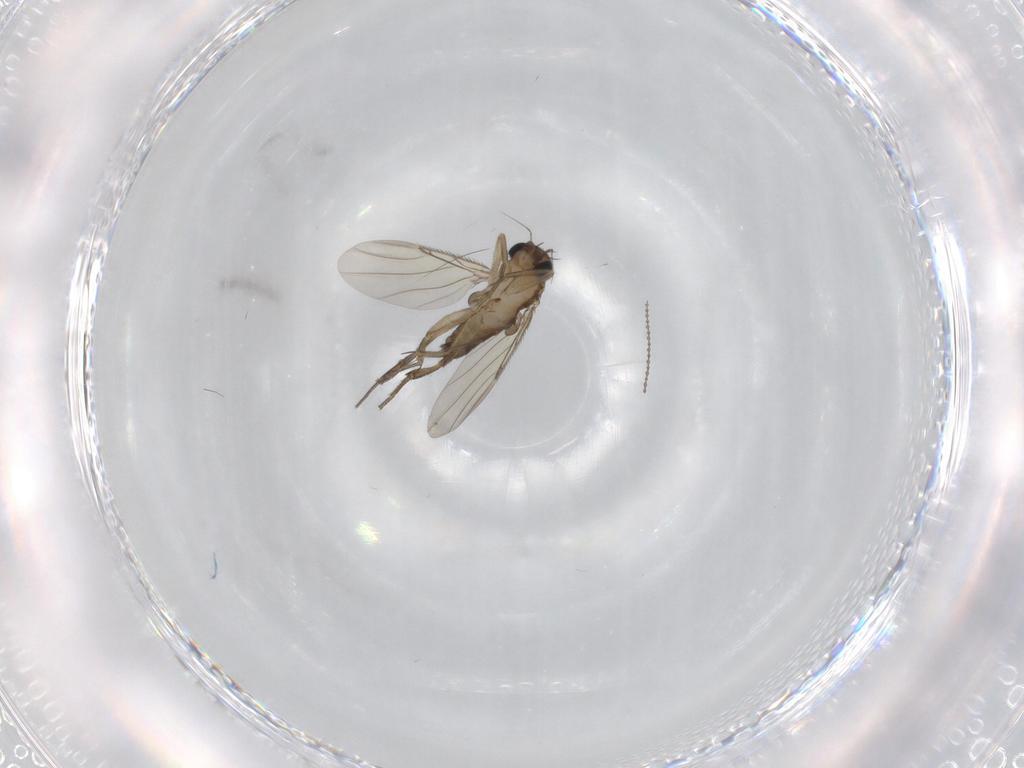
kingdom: Animalia
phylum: Arthropoda
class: Insecta
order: Diptera
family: Phoridae
